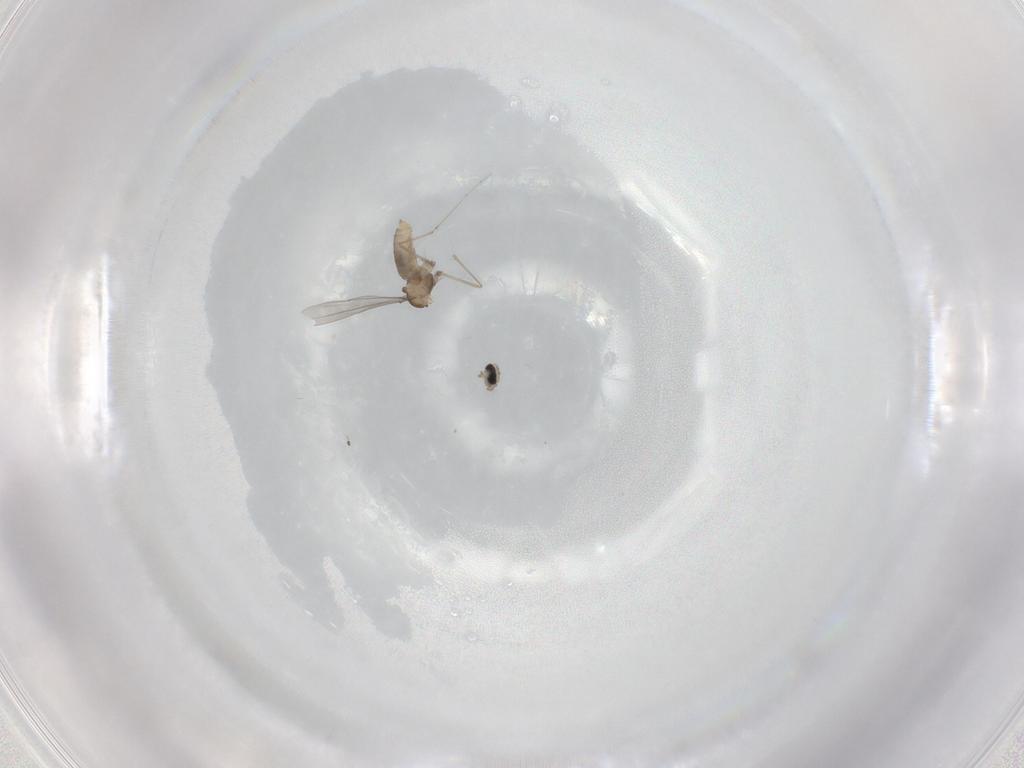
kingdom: Animalia
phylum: Arthropoda
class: Insecta
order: Diptera
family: Cecidomyiidae
